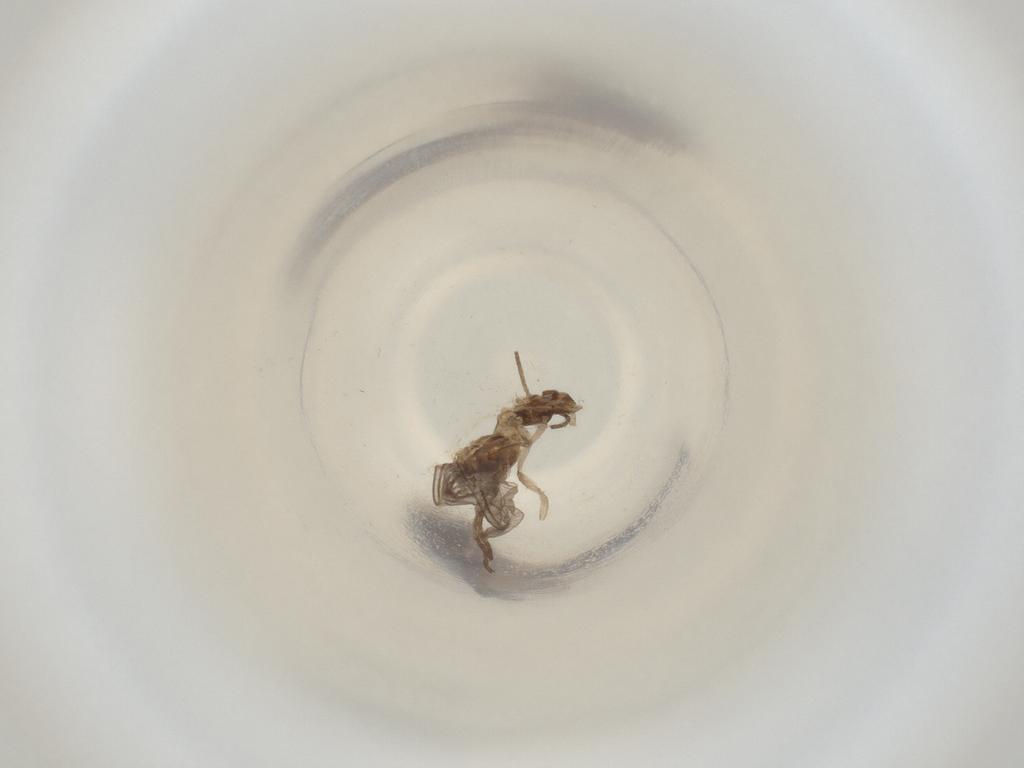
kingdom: Animalia
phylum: Arthropoda
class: Insecta
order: Diptera
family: Cecidomyiidae
